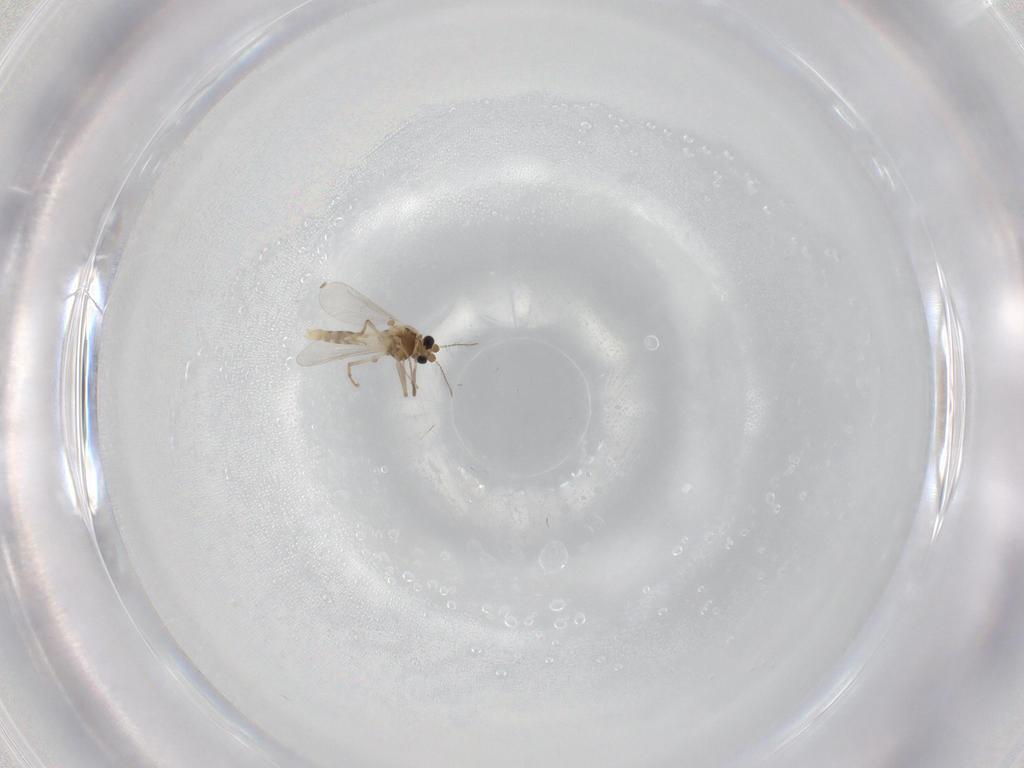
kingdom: Animalia
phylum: Arthropoda
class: Insecta
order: Diptera
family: Chironomidae
